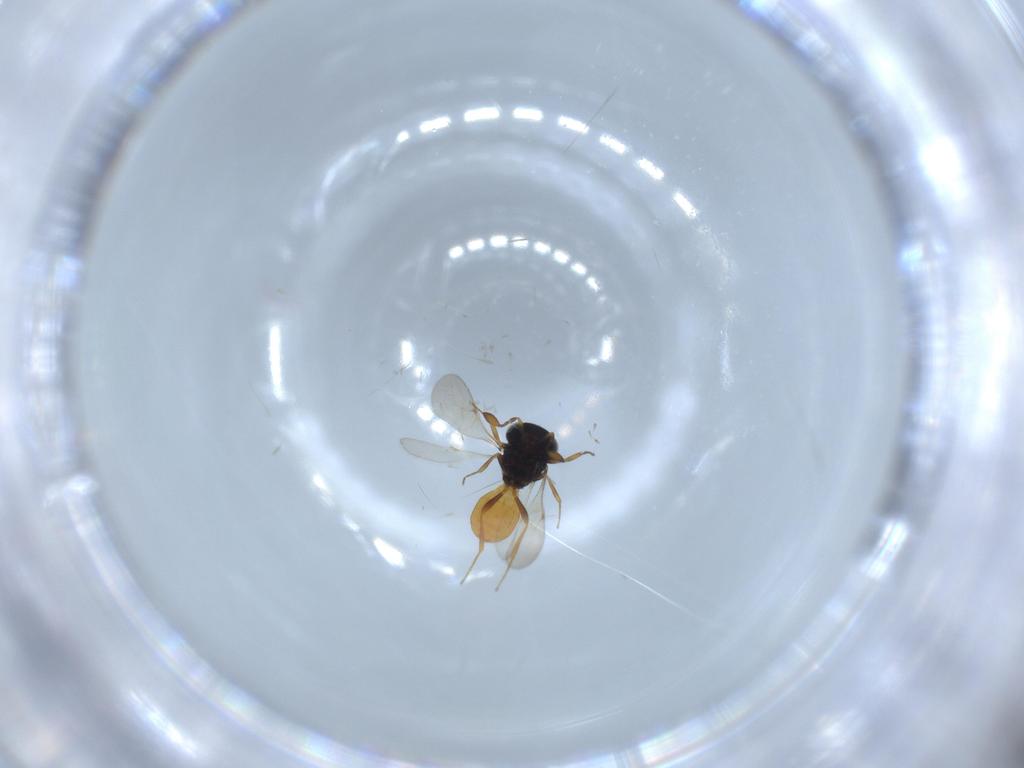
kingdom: Animalia
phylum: Arthropoda
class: Insecta
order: Hymenoptera
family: Scelionidae
